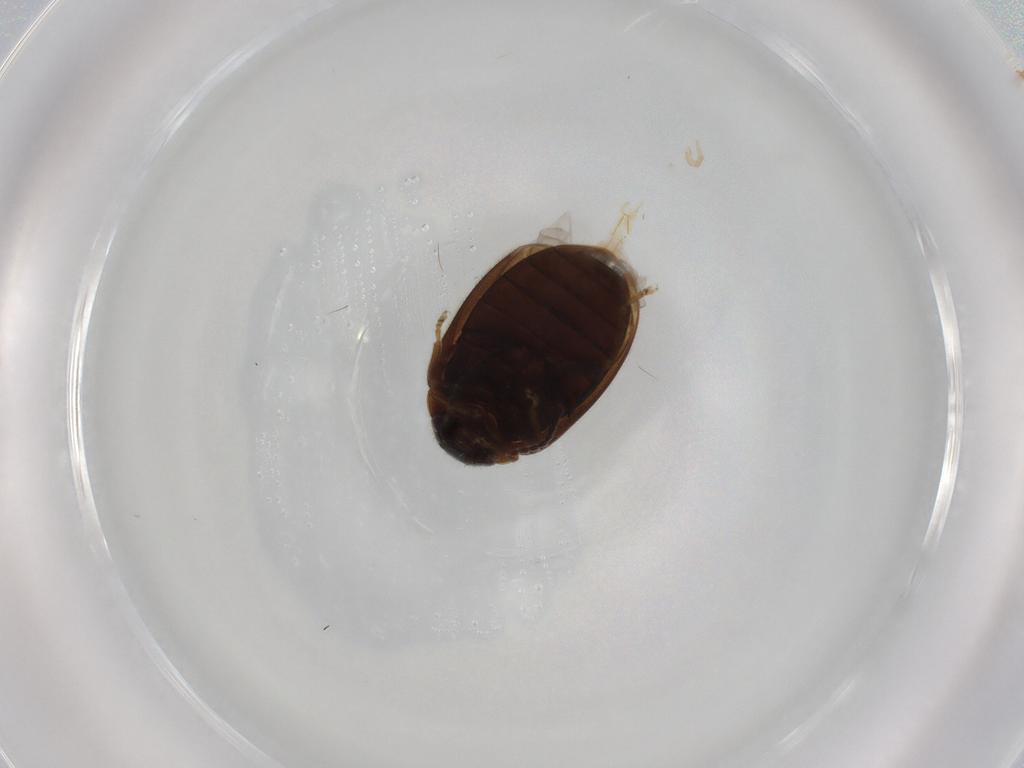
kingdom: Animalia
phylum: Arthropoda
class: Insecta
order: Coleoptera
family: Scirtidae
